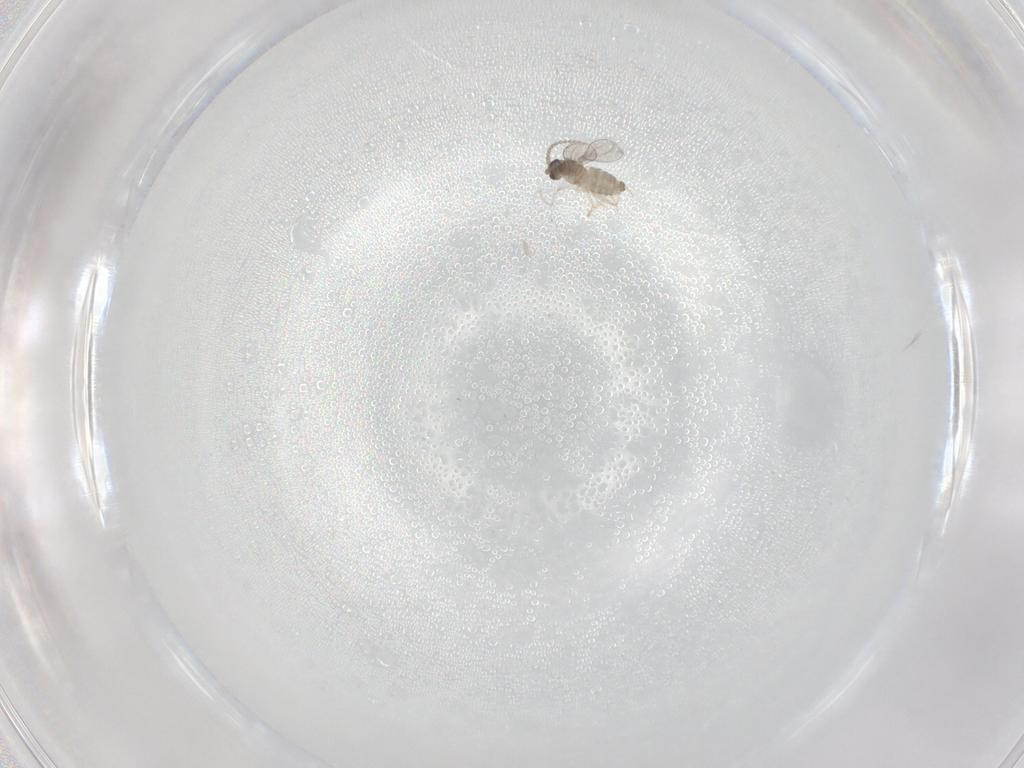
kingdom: Animalia
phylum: Arthropoda
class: Insecta
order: Diptera
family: Cecidomyiidae
